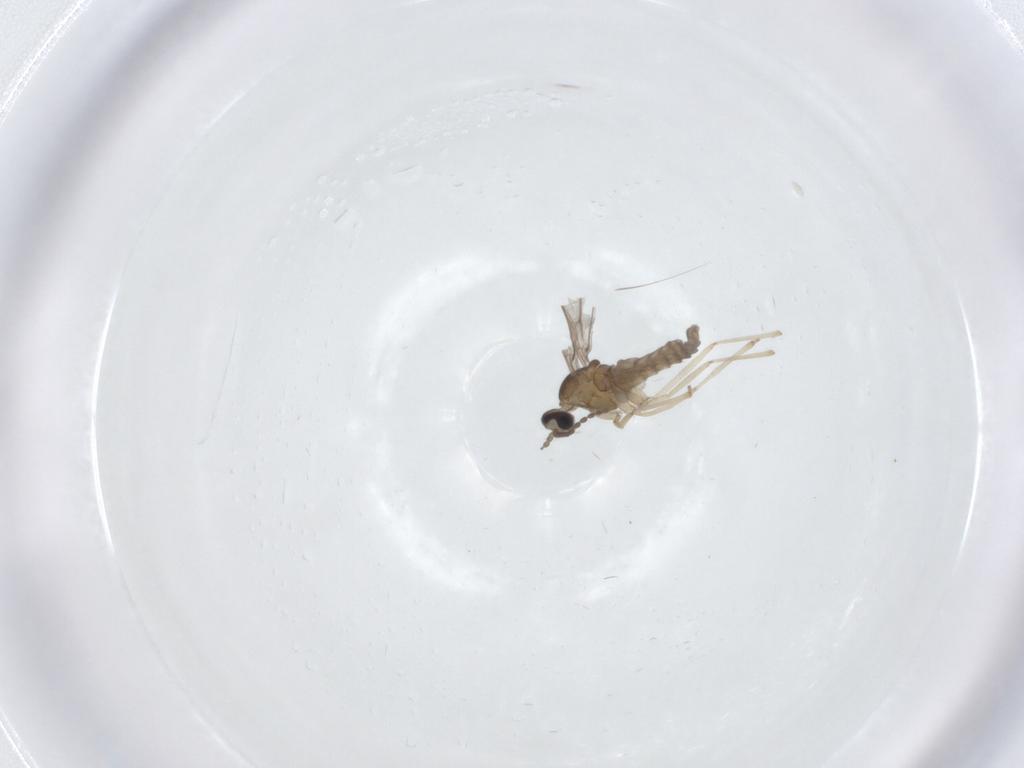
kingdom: Animalia
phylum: Arthropoda
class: Insecta
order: Diptera
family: Cecidomyiidae
